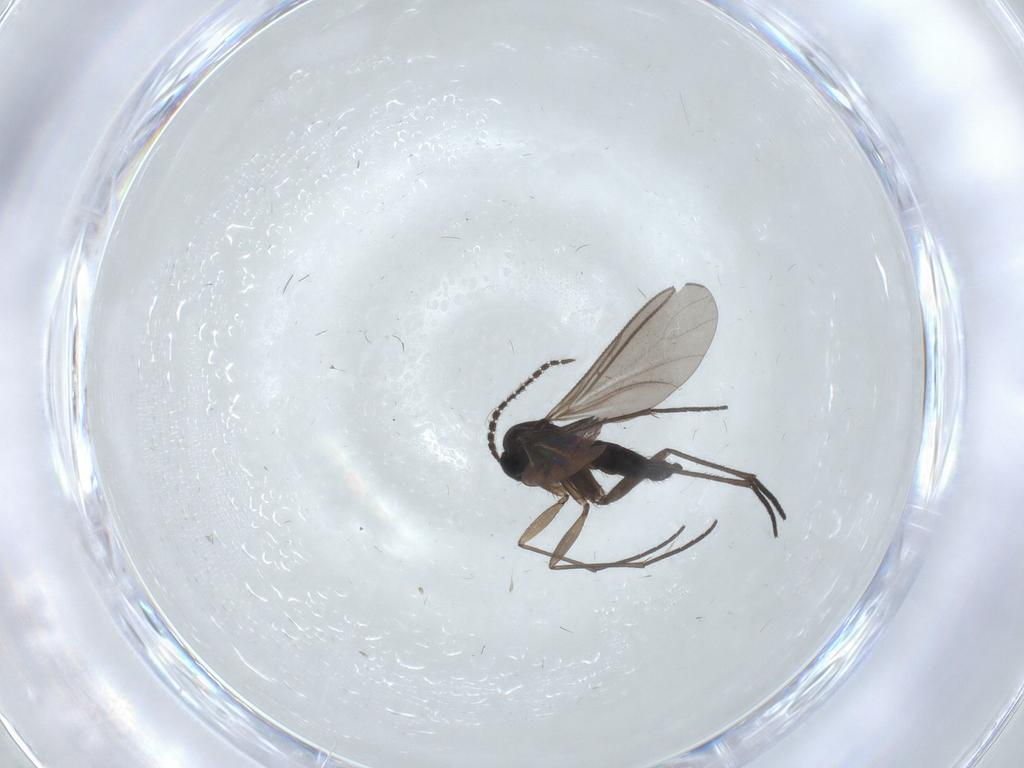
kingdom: Animalia
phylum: Arthropoda
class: Insecta
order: Diptera
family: Sciaridae
